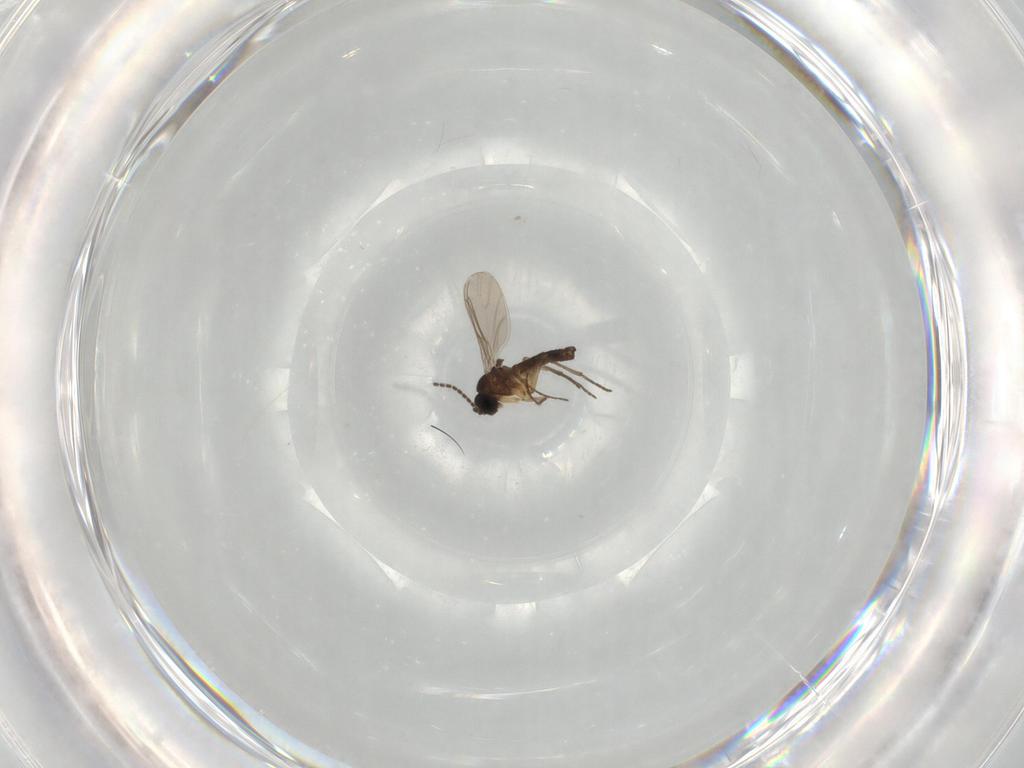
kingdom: Animalia
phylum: Arthropoda
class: Insecta
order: Diptera
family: Sciaridae
